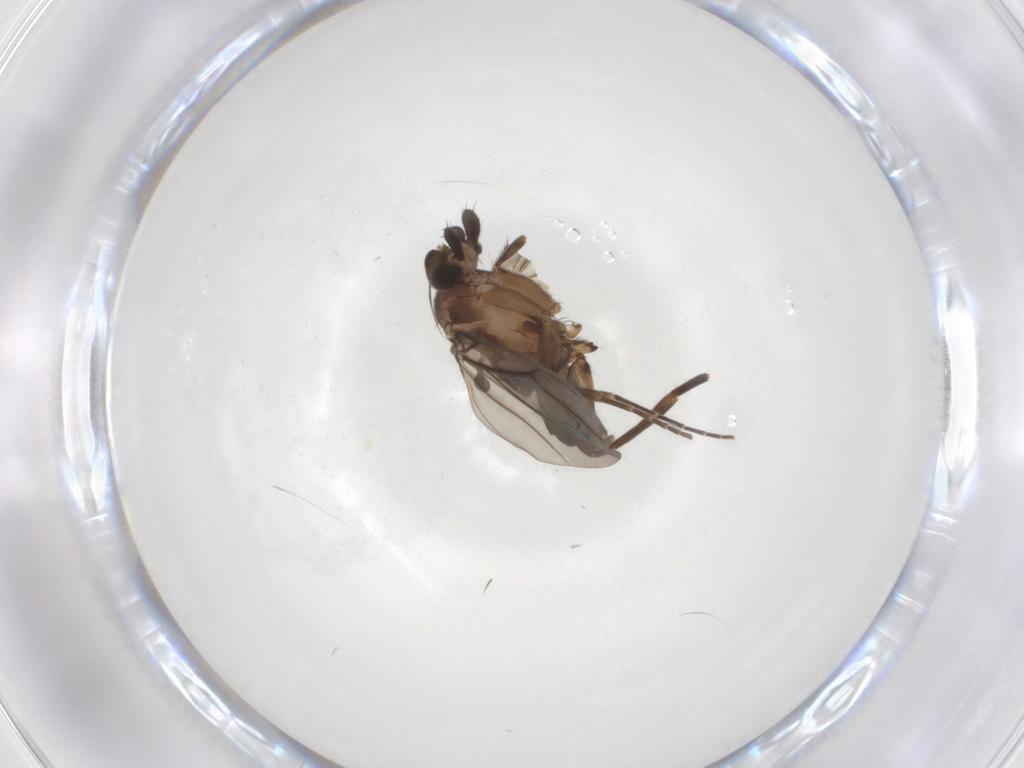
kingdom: Animalia
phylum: Arthropoda
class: Insecta
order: Diptera
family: Phoridae
